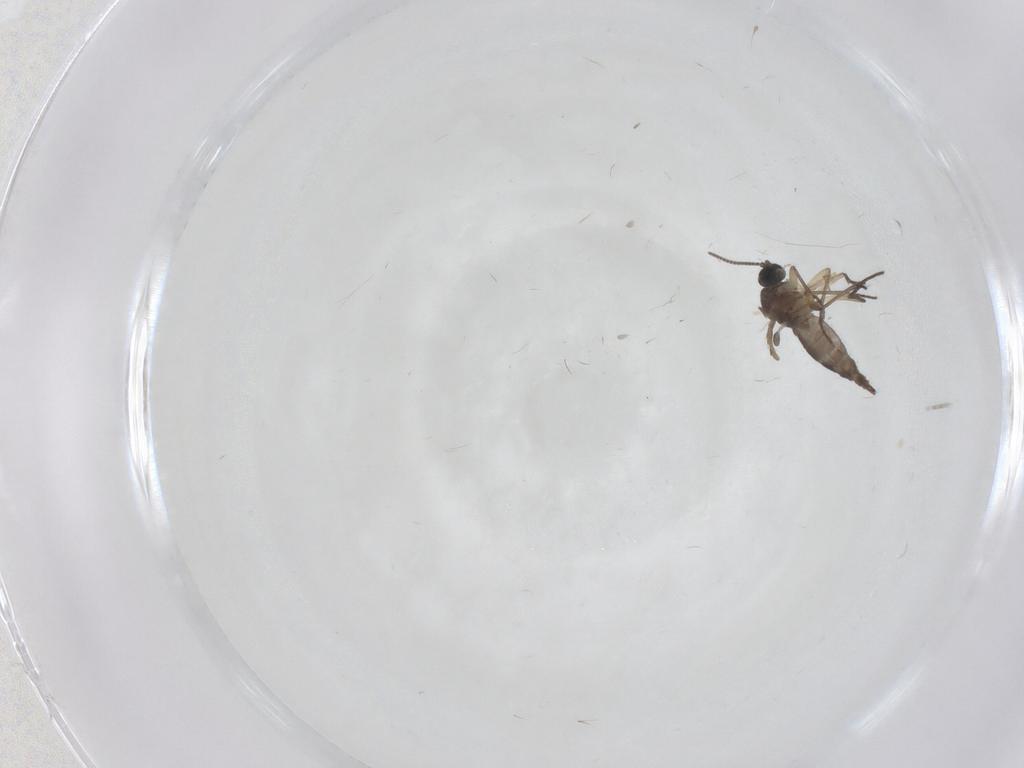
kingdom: Animalia
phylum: Arthropoda
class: Insecta
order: Diptera
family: Sciaridae
